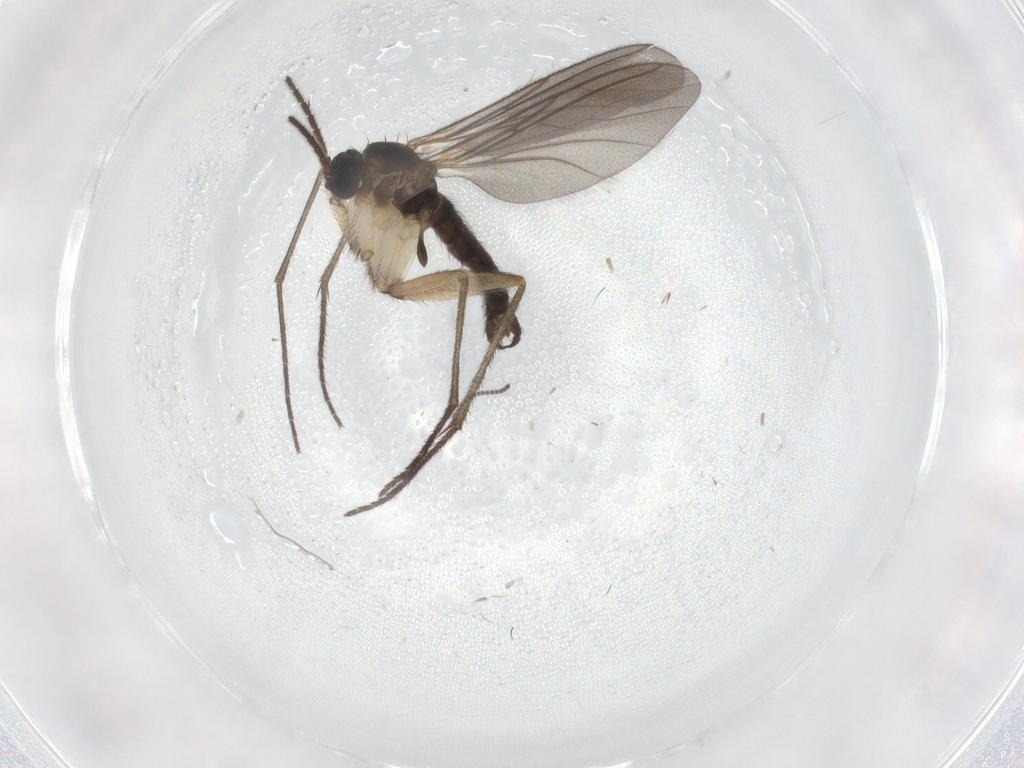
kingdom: Animalia
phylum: Arthropoda
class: Insecta
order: Diptera
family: Sciaridae
